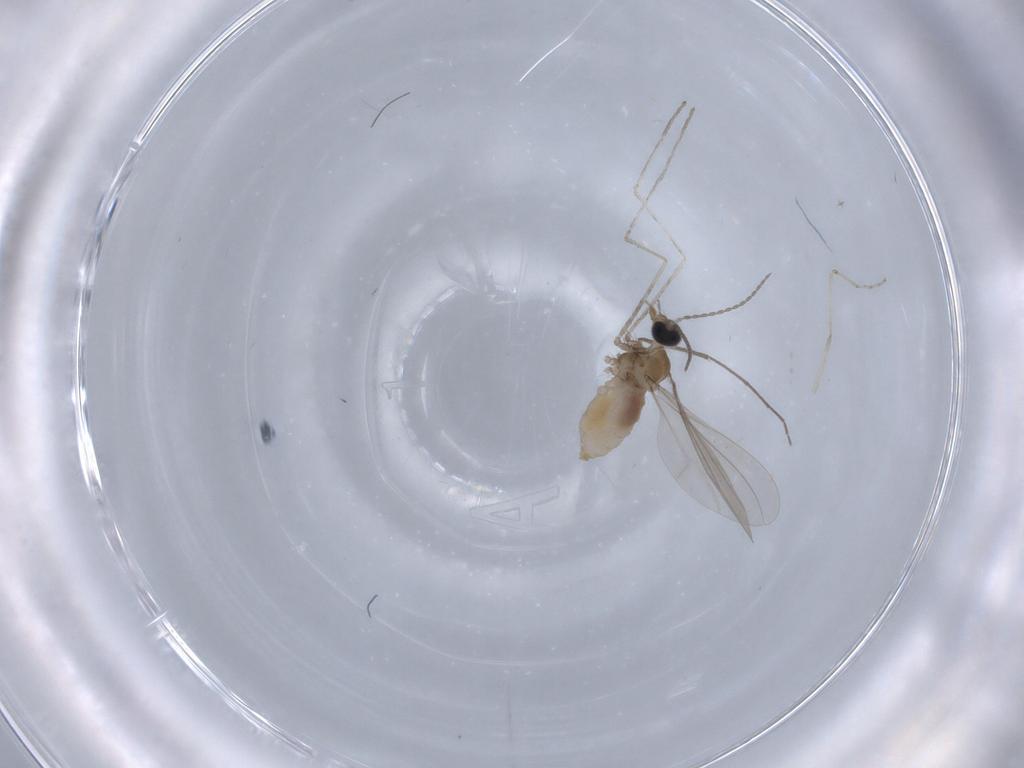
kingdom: Animalia
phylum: Arthropoda
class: Insecta
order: Diptera
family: Chironomidae
